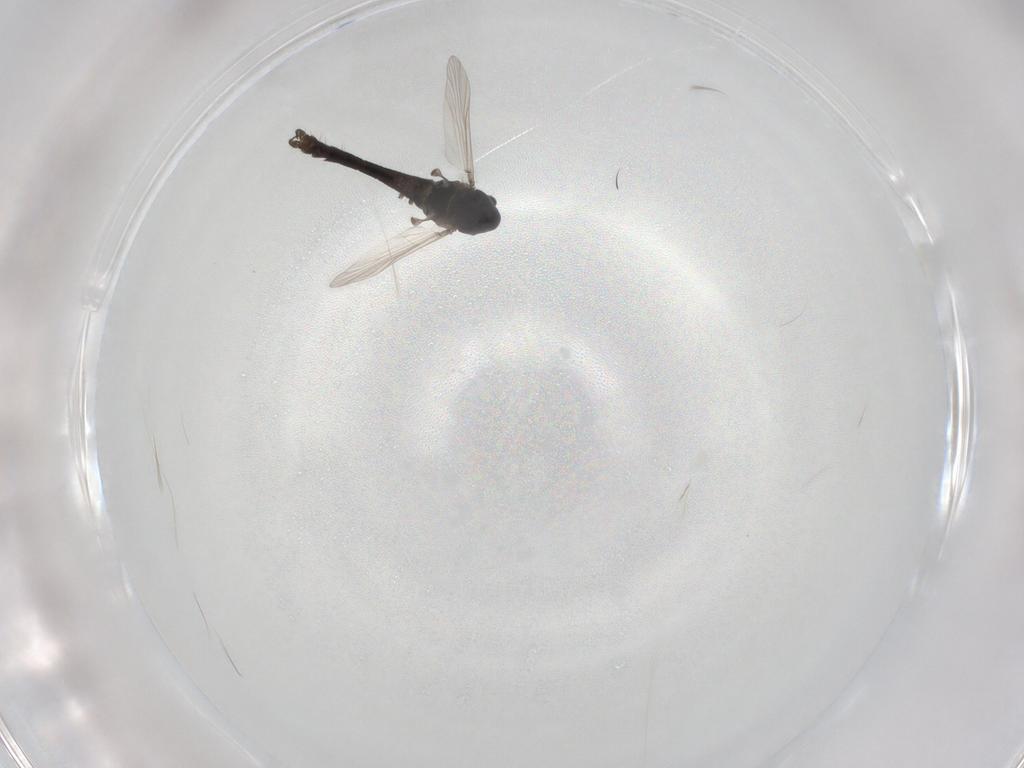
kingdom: Animalia
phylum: Arthropoda
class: Insecta
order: Diptera
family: Chironomidae
